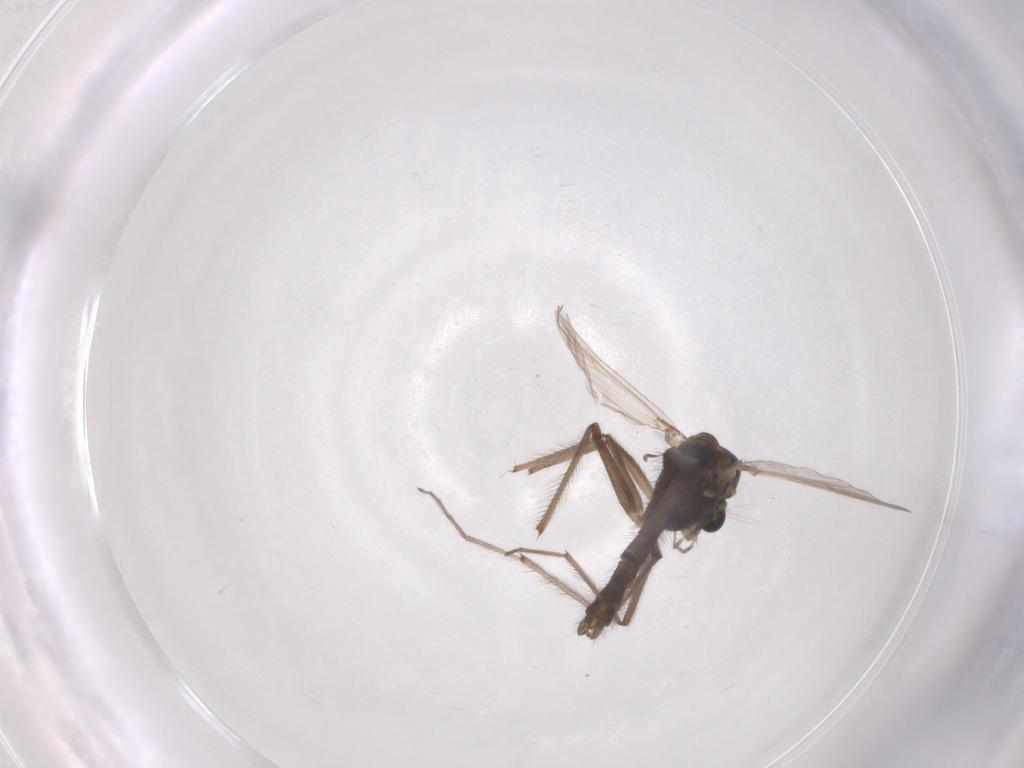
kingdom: Animalia
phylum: Arthropoda
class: Insecta
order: Diptera
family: Chironomidae
